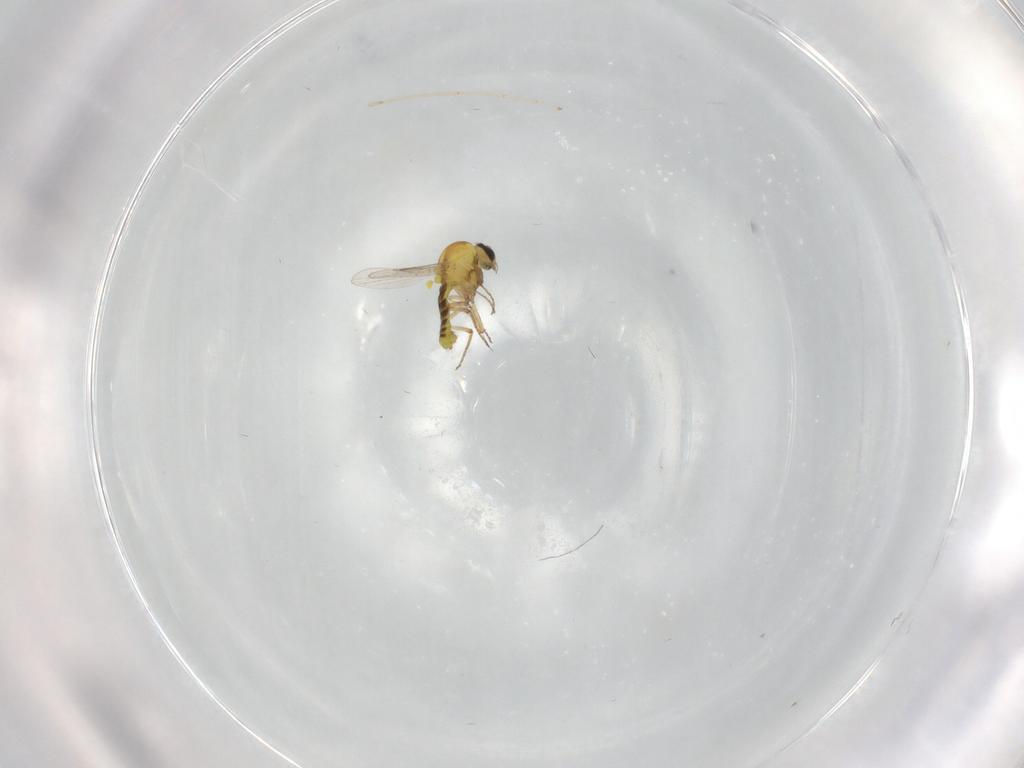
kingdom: Animalia
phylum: Arthropoda
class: Insecta
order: Diptera
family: Ceratopogonidae
